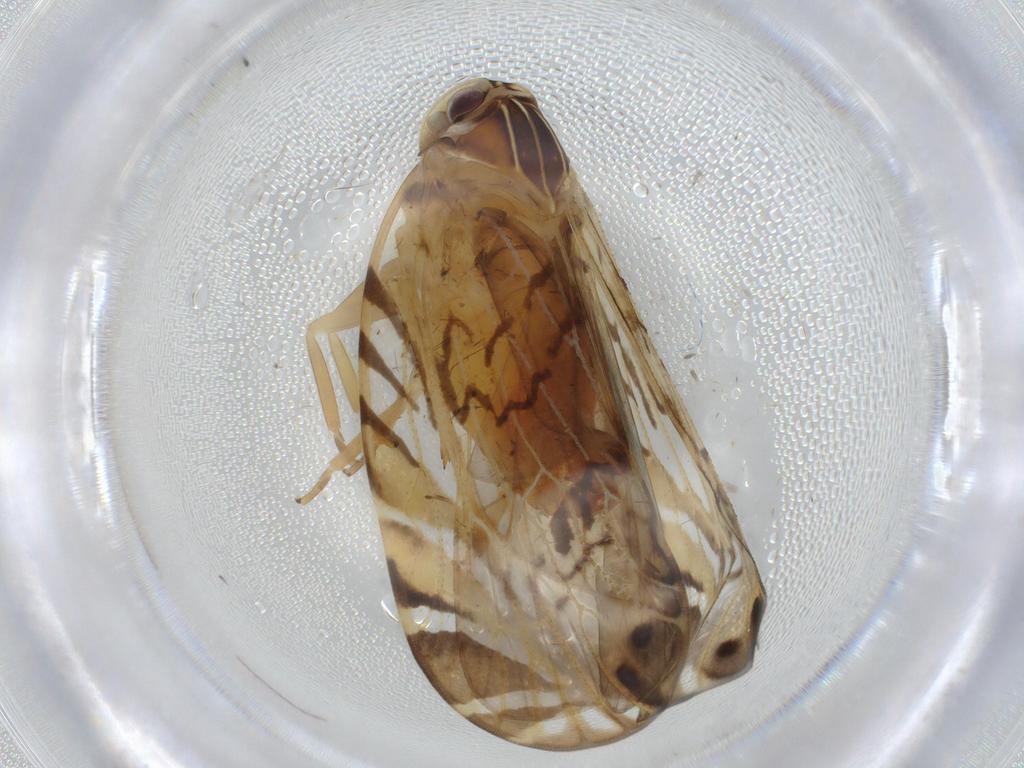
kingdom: Animalia
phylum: Arthropoda
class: Insecta
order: Hemiptera
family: Cixiidae
